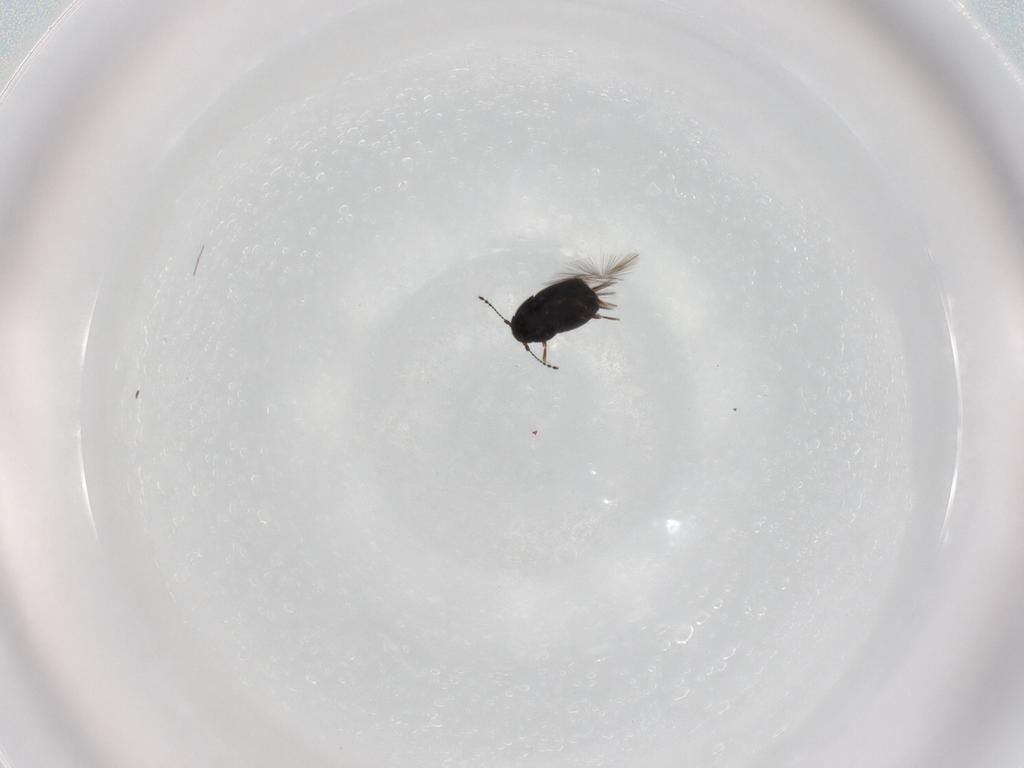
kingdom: Animalia
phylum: Arthropoda
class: Insecta
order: Coleoptera
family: Ptiliidae
